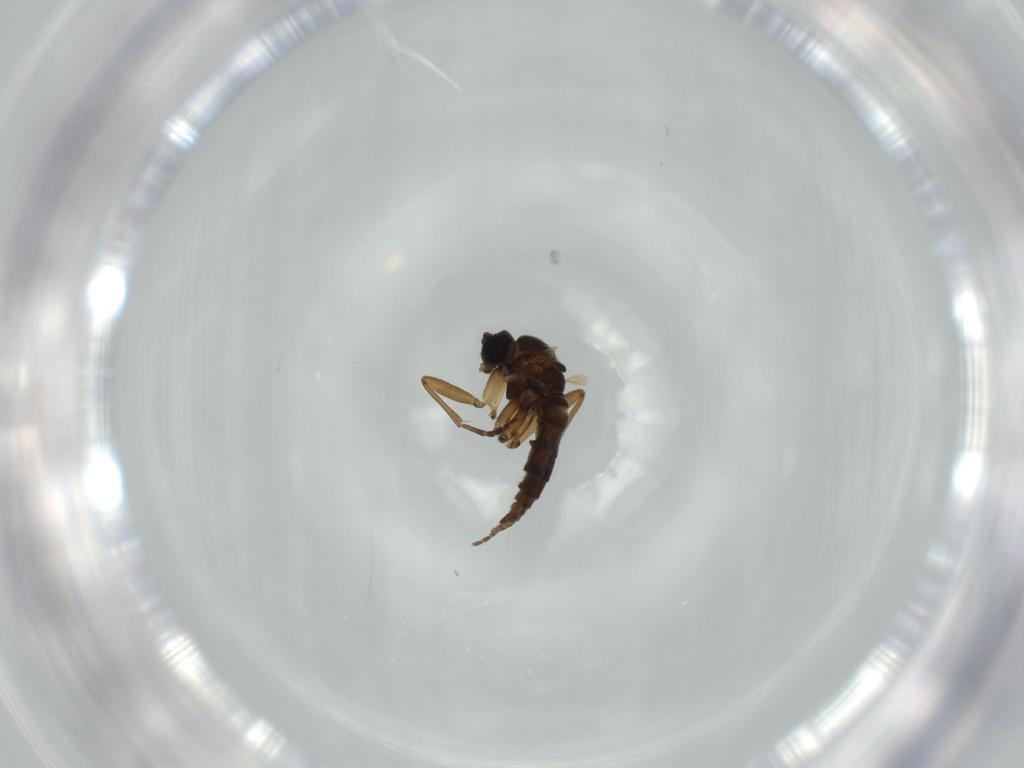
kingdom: Animalia
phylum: Arthropoda
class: Insecta
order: Diptera
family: Sciaridae
